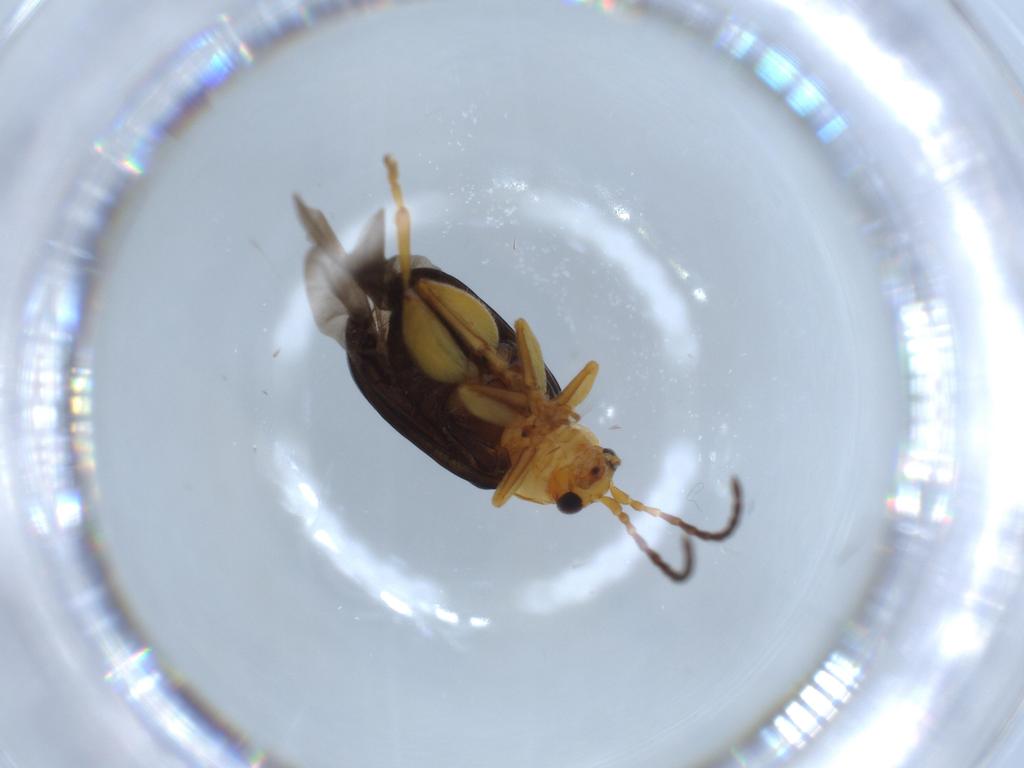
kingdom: Animalia
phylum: Arthropoda
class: Insecta
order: Coleoptera
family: Chrysomelidae
